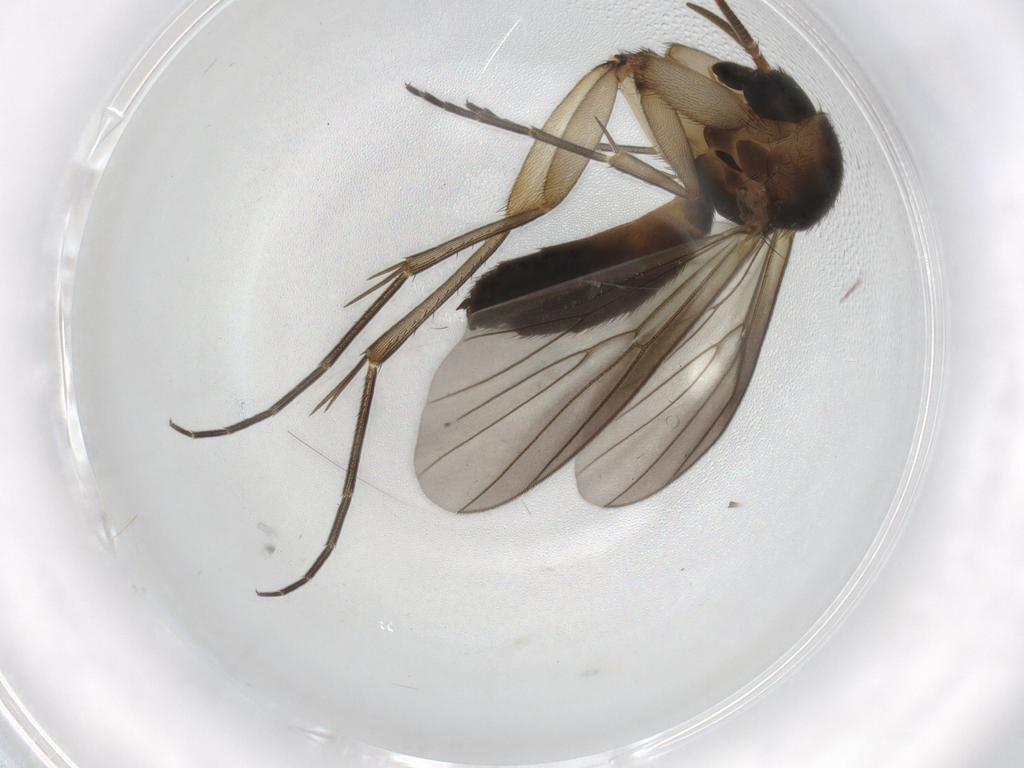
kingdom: Animalia
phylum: Arthropoda
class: Insecta
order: Diptera
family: Mycetophilidae
